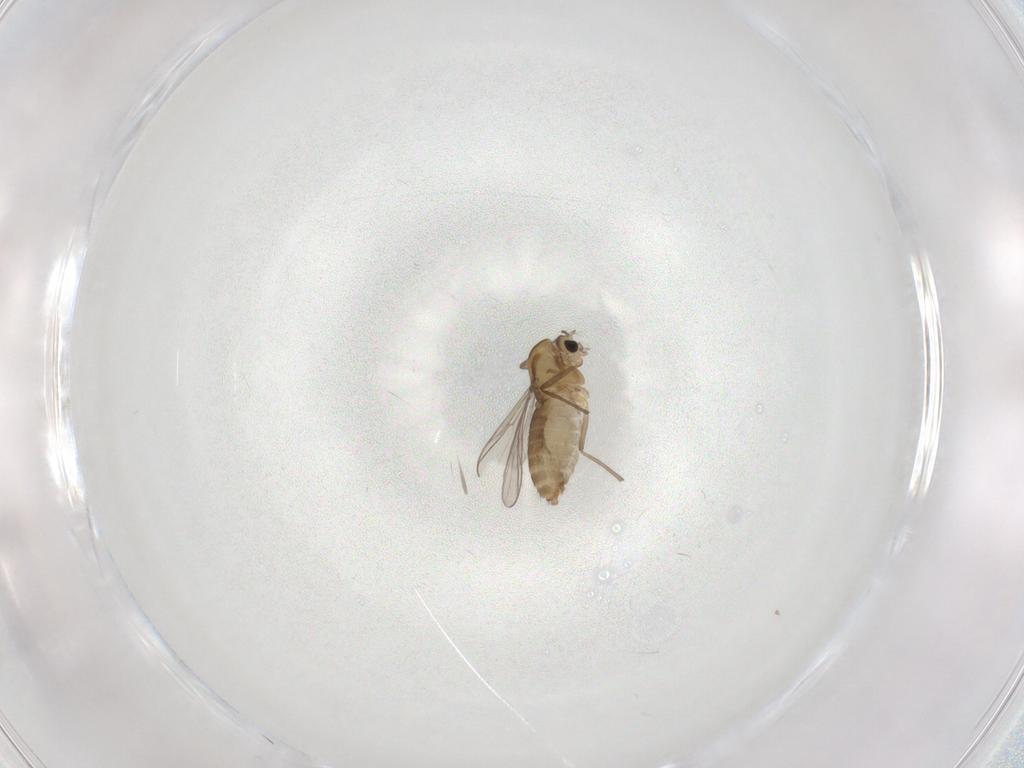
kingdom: Animalia
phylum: Arthropoda
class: Insecta
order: Diptera
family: Chironomidae
